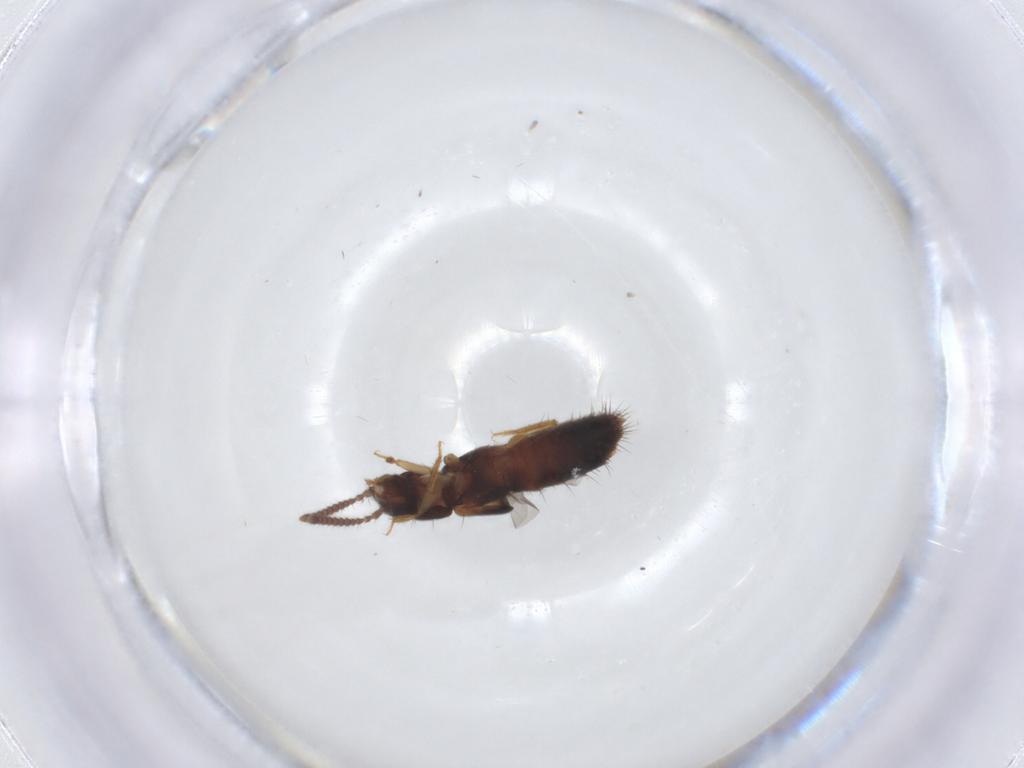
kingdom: Animalia
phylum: Arthropoda
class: Insecta
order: Coleoptera
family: Staphylinidae
